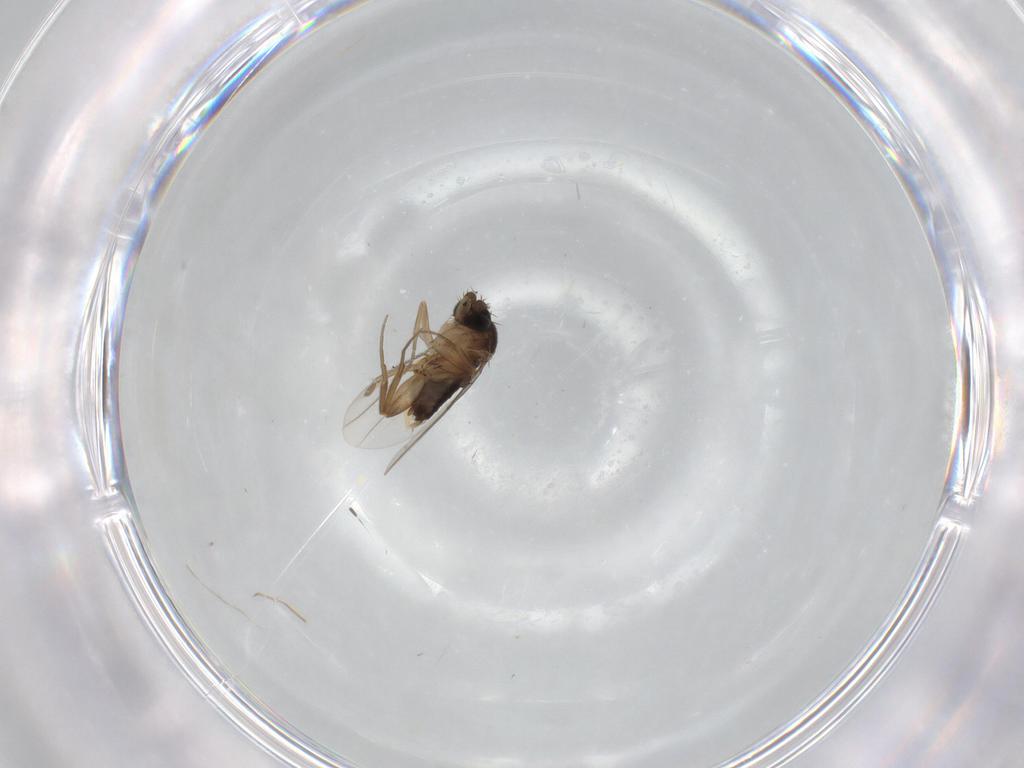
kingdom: Animalia
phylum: Arthropoda
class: Insecta
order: Diptera
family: Phoridae
